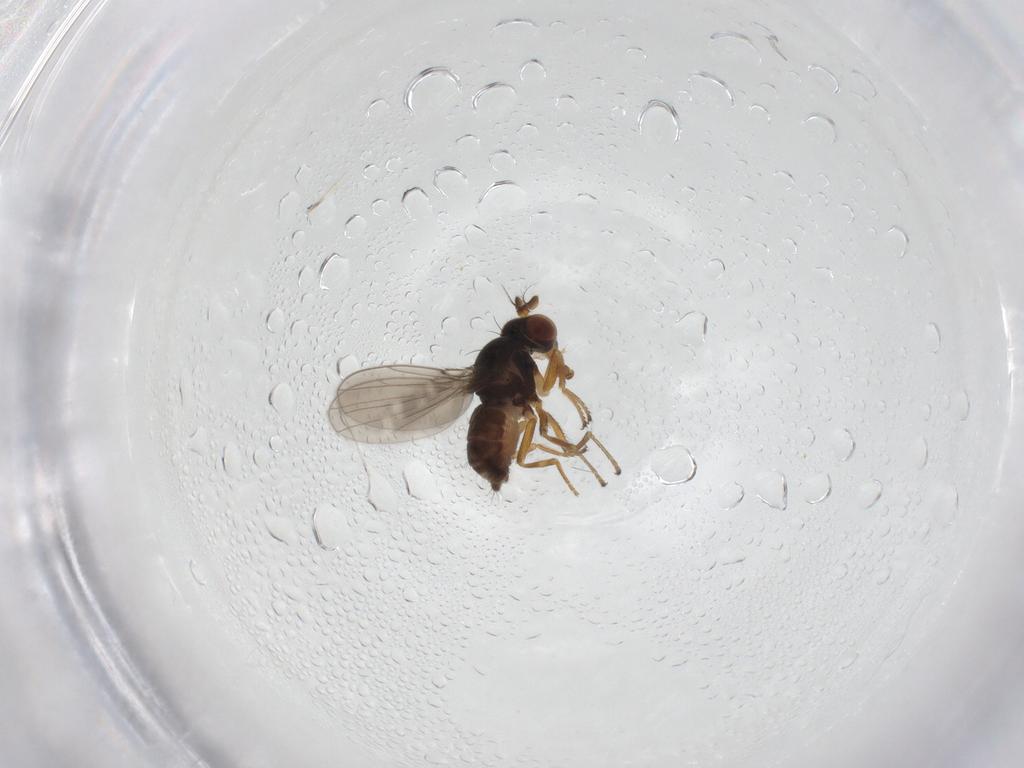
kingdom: Animalia
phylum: Arthropoda
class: Insecta
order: Diptera
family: Ephydridae
